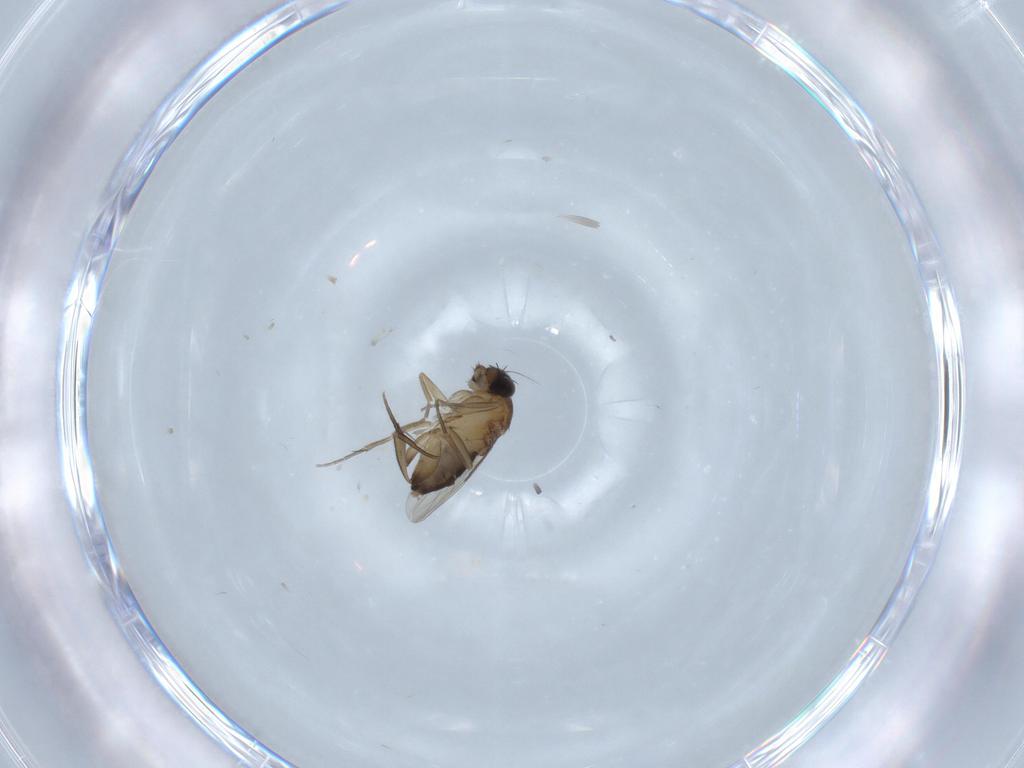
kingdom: Animalia
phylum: Arthropoda
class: Insecta
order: Diptera
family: Phoridae
